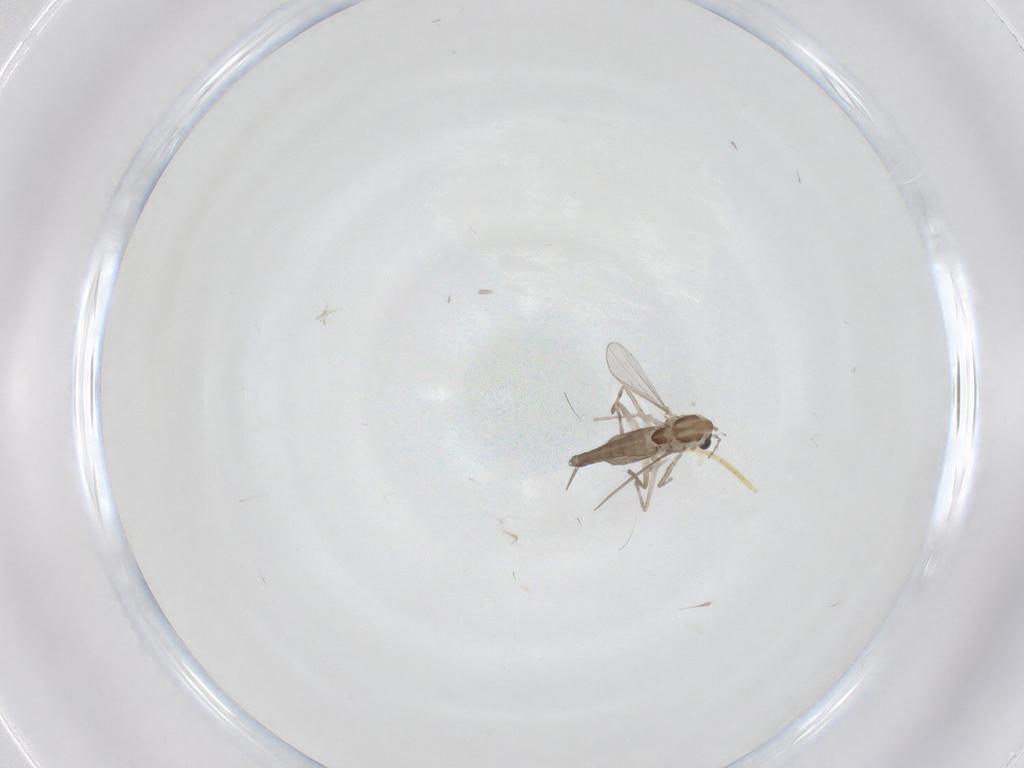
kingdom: Animalia
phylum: Arthropoda
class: Insecta
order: Diptera
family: Chironomidae
